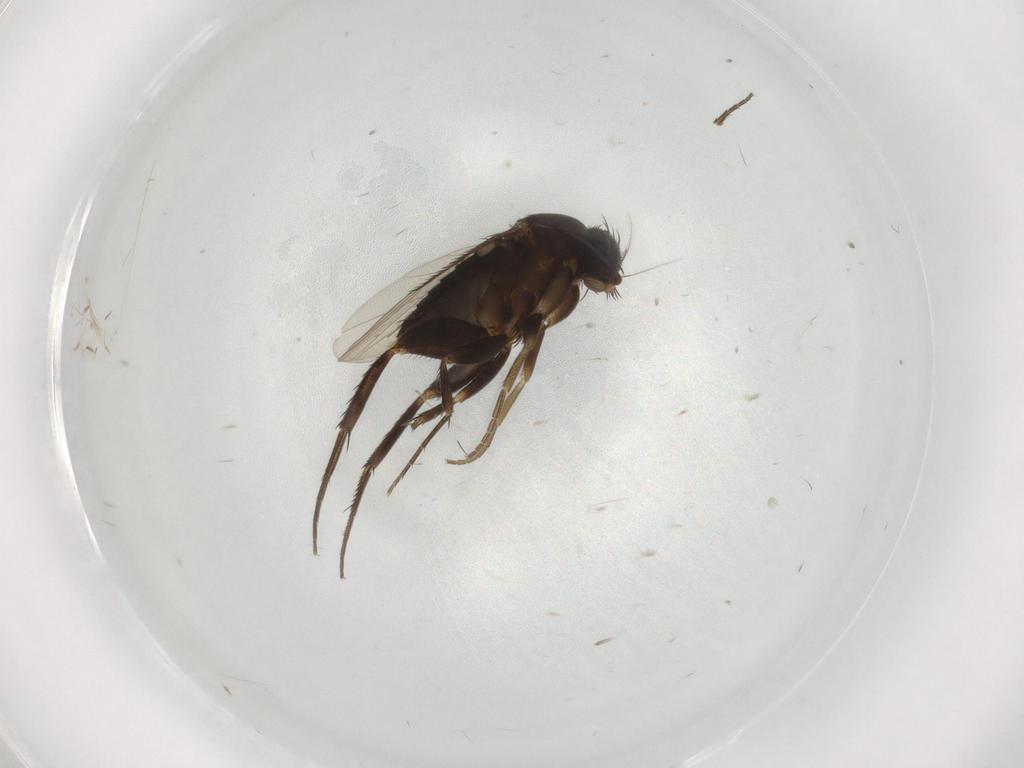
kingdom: Animalia
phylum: Arthropoda
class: Insecta
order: Diptera
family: Phoridae
